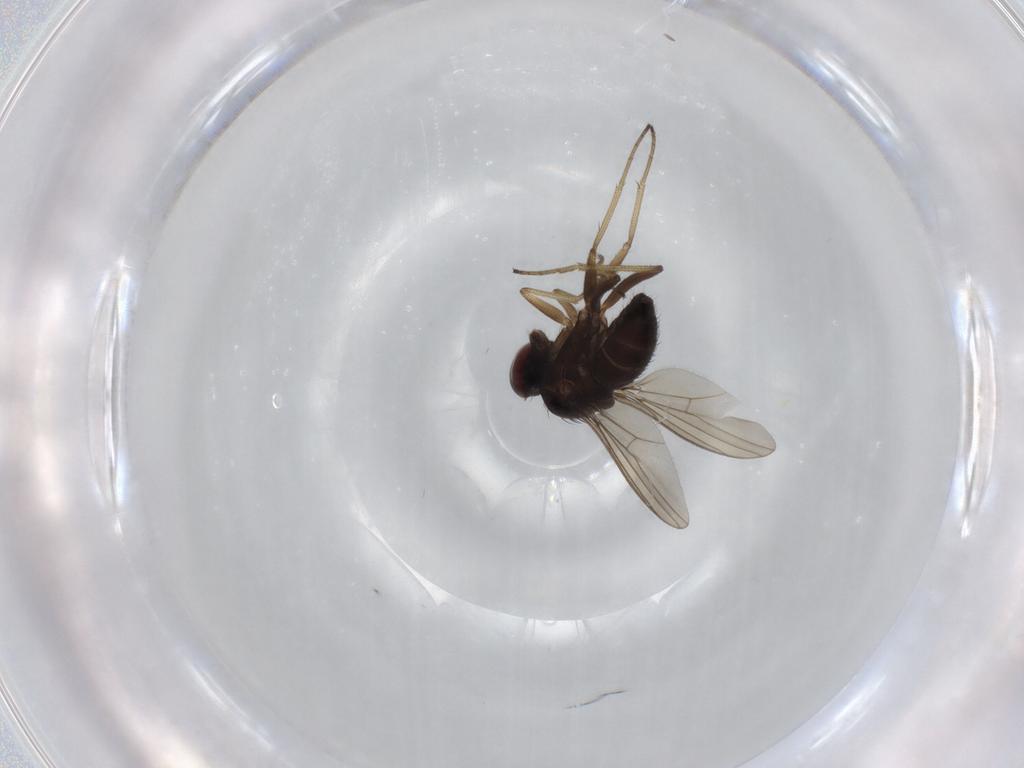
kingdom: Animalia
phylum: Arthropoda
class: Insecta
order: Diptera
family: Dolichopodidae
